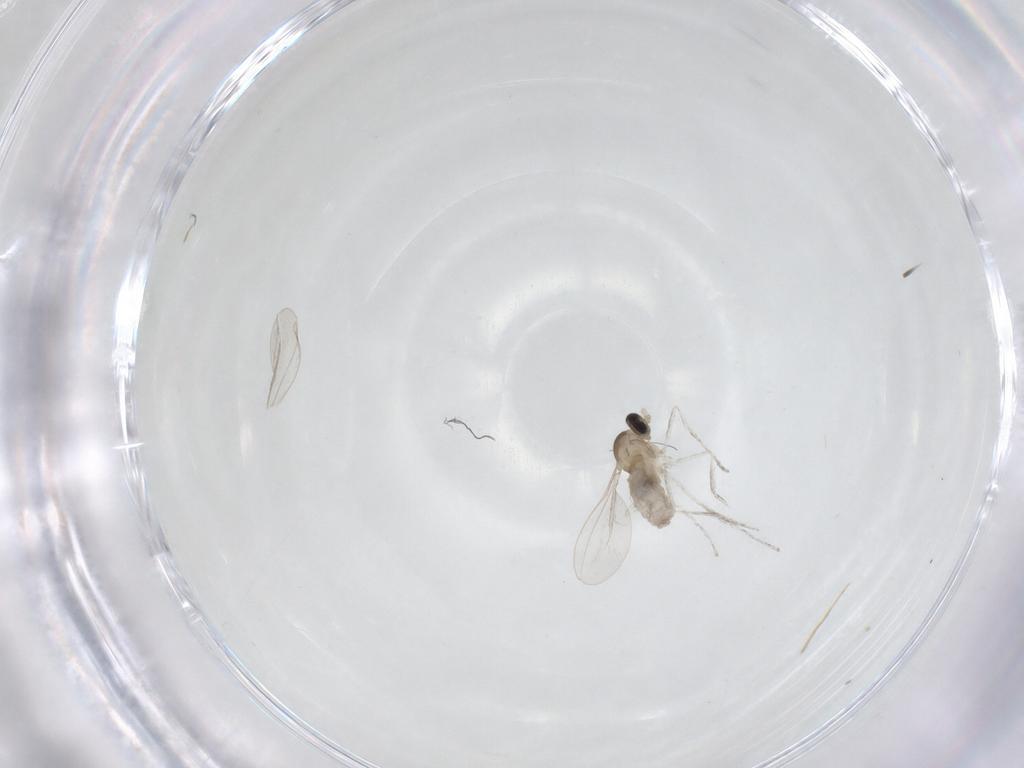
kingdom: Animalia
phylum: Arthropoda
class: Insecta
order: Diptera
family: Cecidomyiidae
